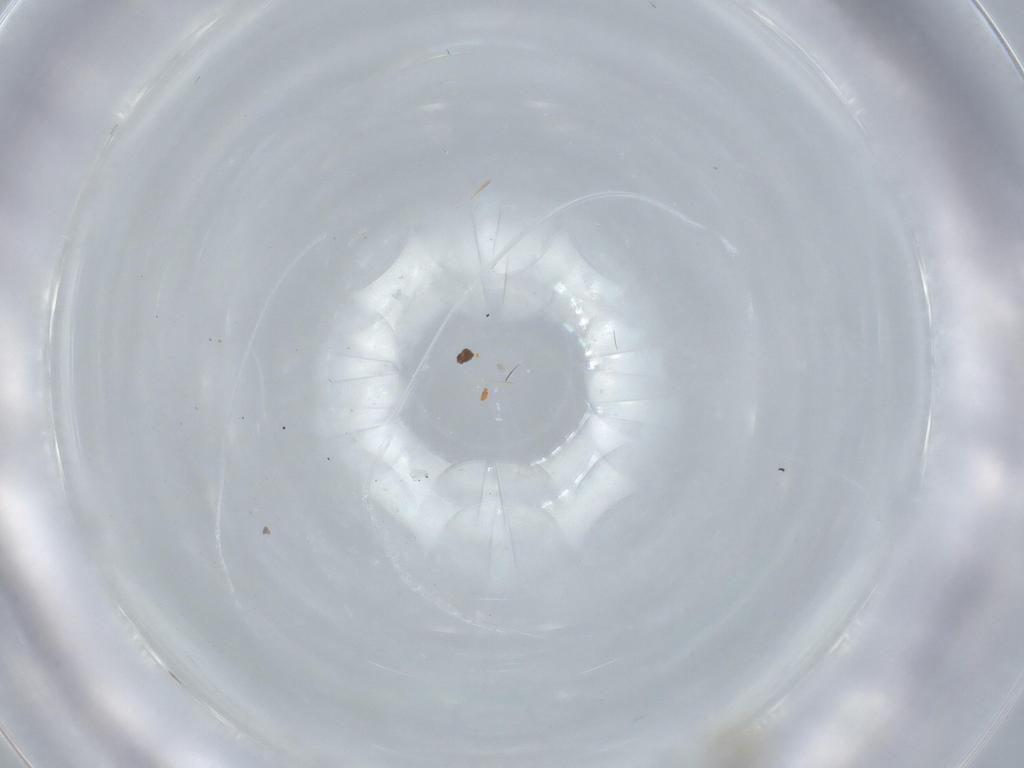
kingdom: Animalia
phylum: Arthropoda
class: Insecta
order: Hymenoptera
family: Mymaridae
